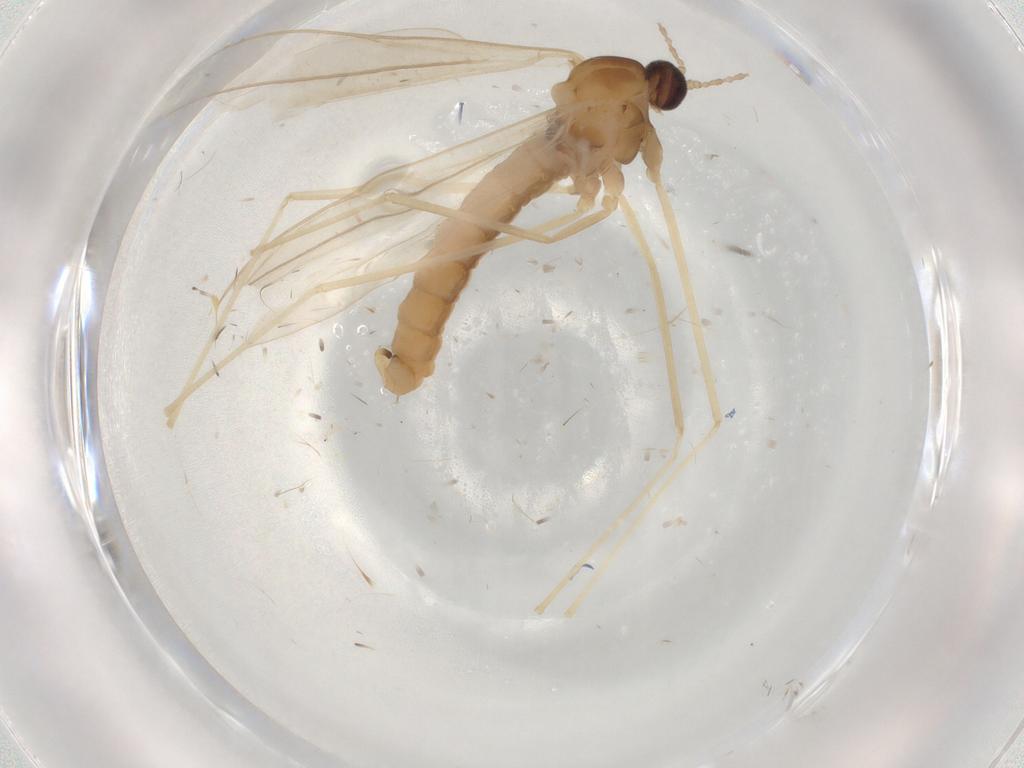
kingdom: Animalia
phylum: Arthropoda
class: Insecta
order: Diptera
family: Cecidomyiidae
